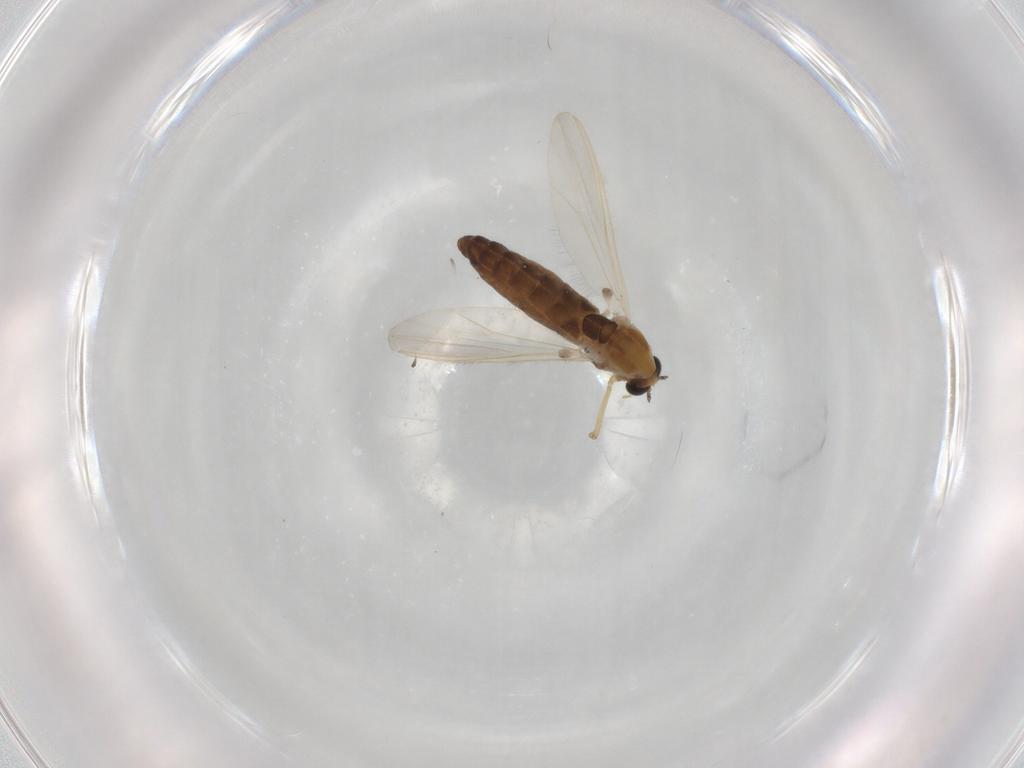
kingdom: Animalia
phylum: Arthropoda
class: Insecta
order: Diptera
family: Chironomidae
